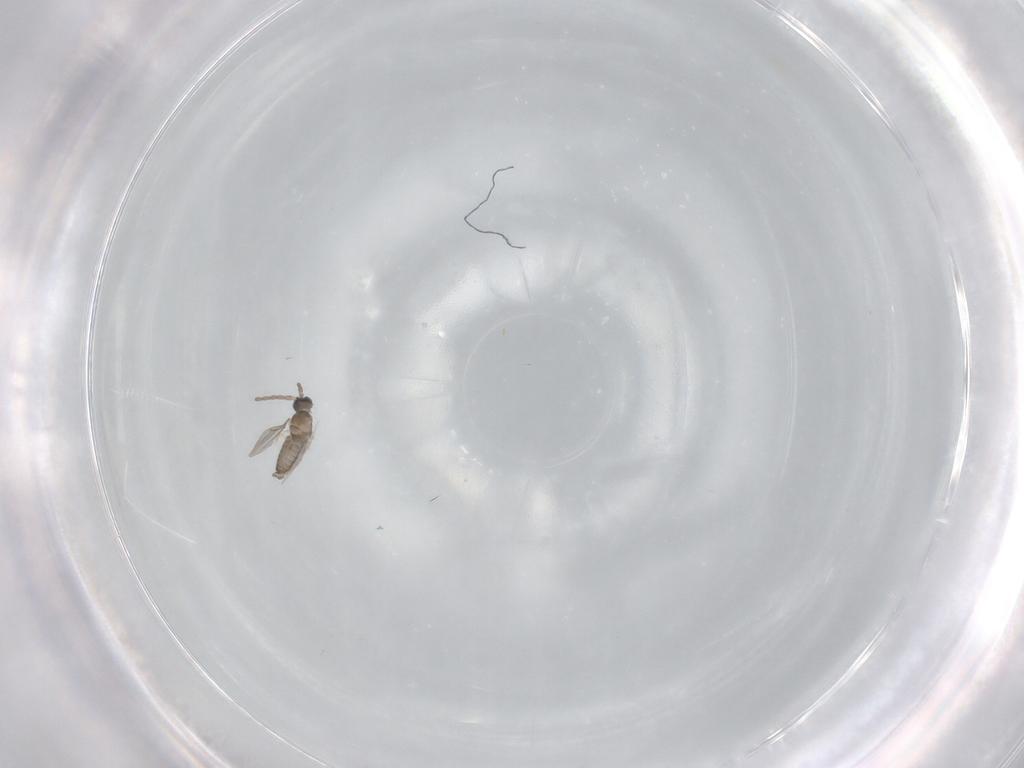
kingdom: Animalia
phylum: Arthropoda
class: Insecta
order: Diptera
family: Cecidomyiidae
